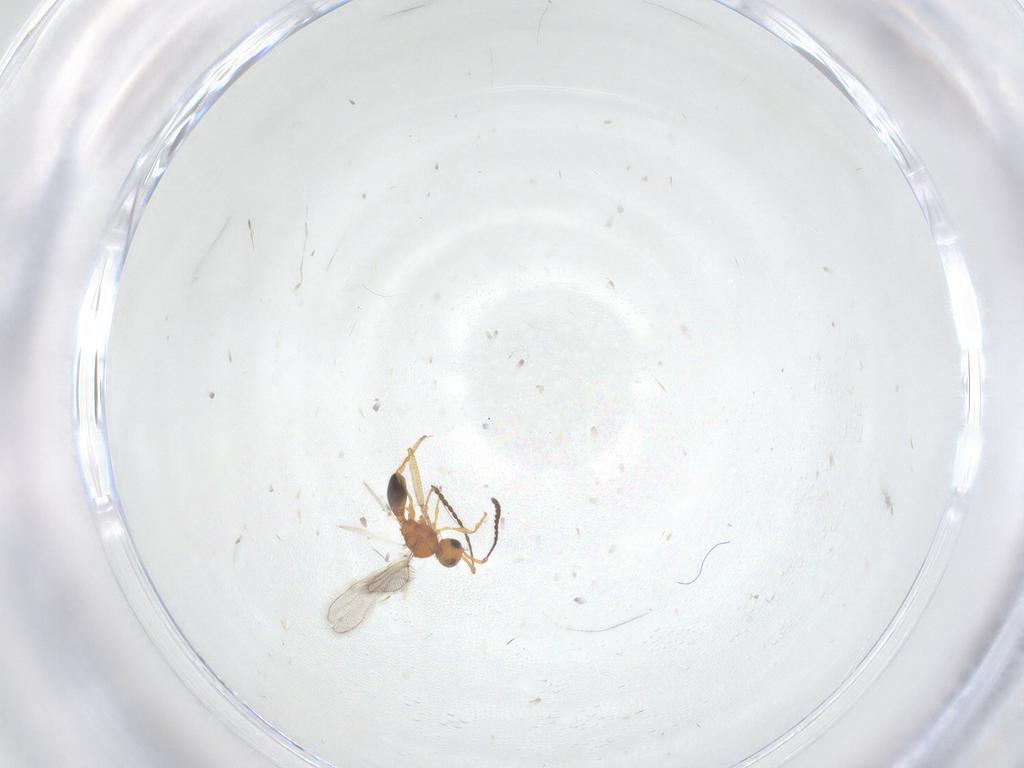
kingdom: Animalia
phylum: Arthropoda
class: Insecta
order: Hymenoptera
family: Diapriidae
